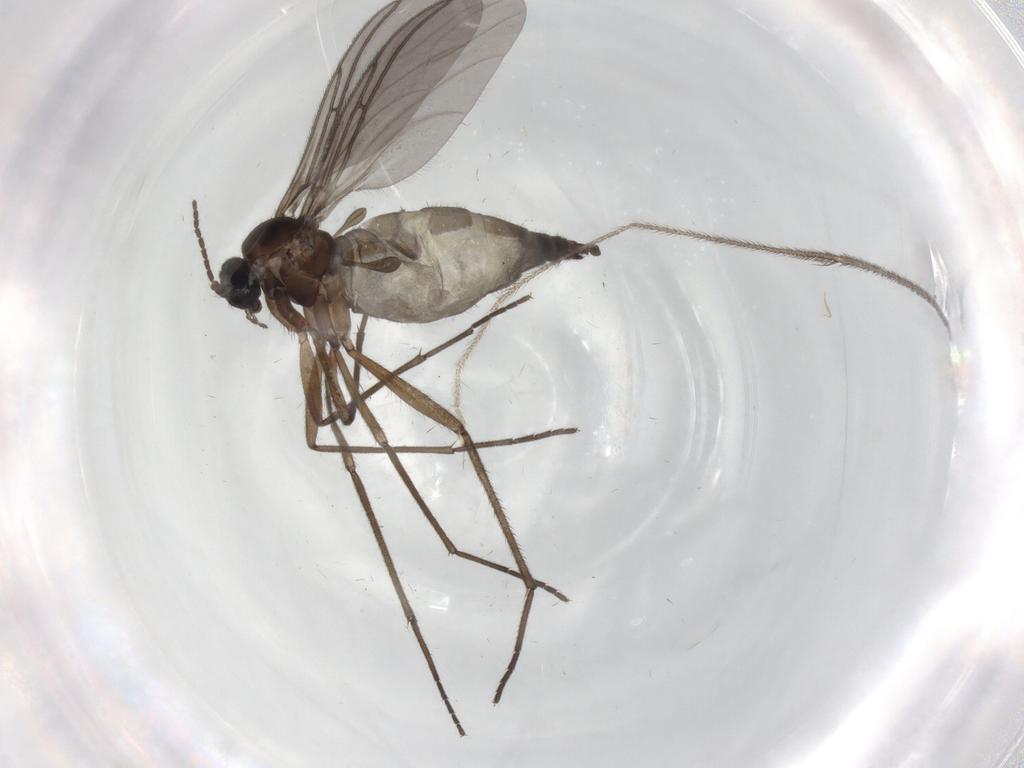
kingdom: Animalia
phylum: Arthropoda
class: Insecta
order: Diptera
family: Sciaridae
